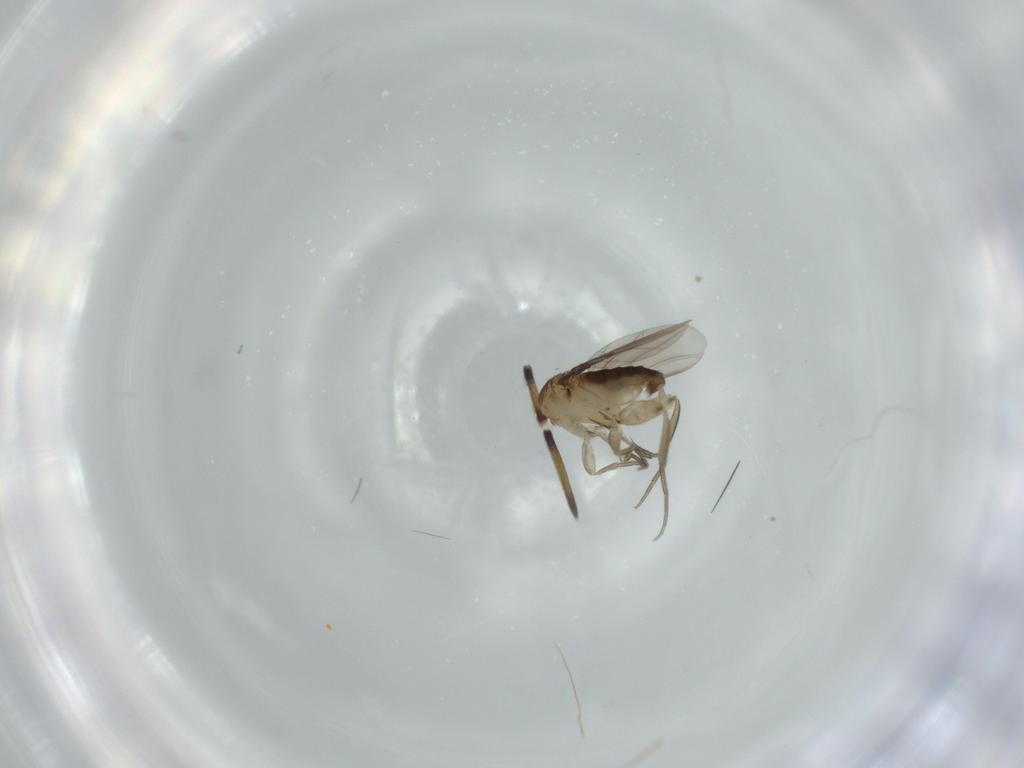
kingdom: Animalia
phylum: Arthropoda
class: Insecta
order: Diptera
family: Phoridae
